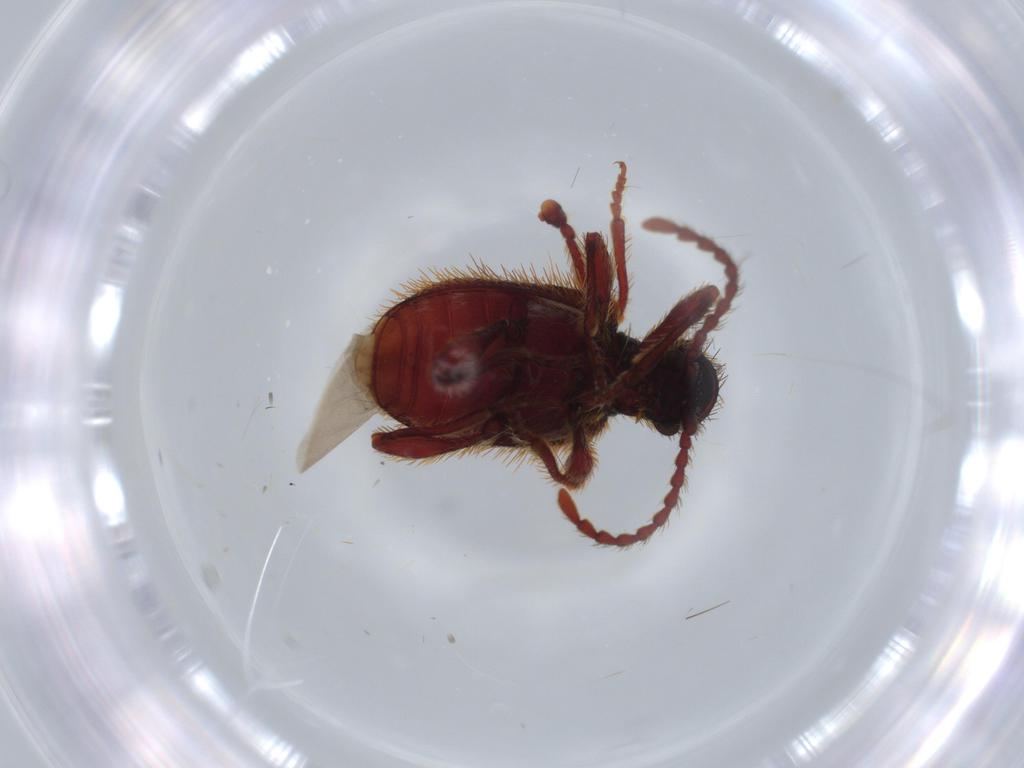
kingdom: Animalia
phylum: Arthropoda
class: Insecta
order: Coleoptera
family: Ptinidae
